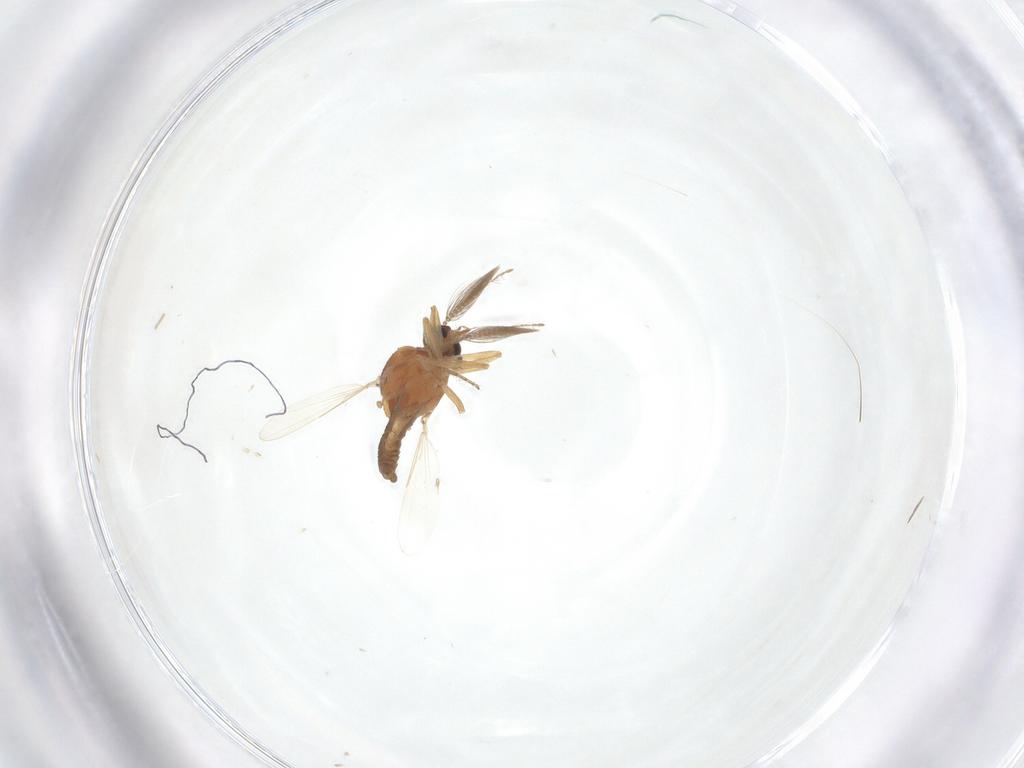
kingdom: Animalia
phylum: Arthropoda
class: Insecta
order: Diptera
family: Ceratopogonidae
